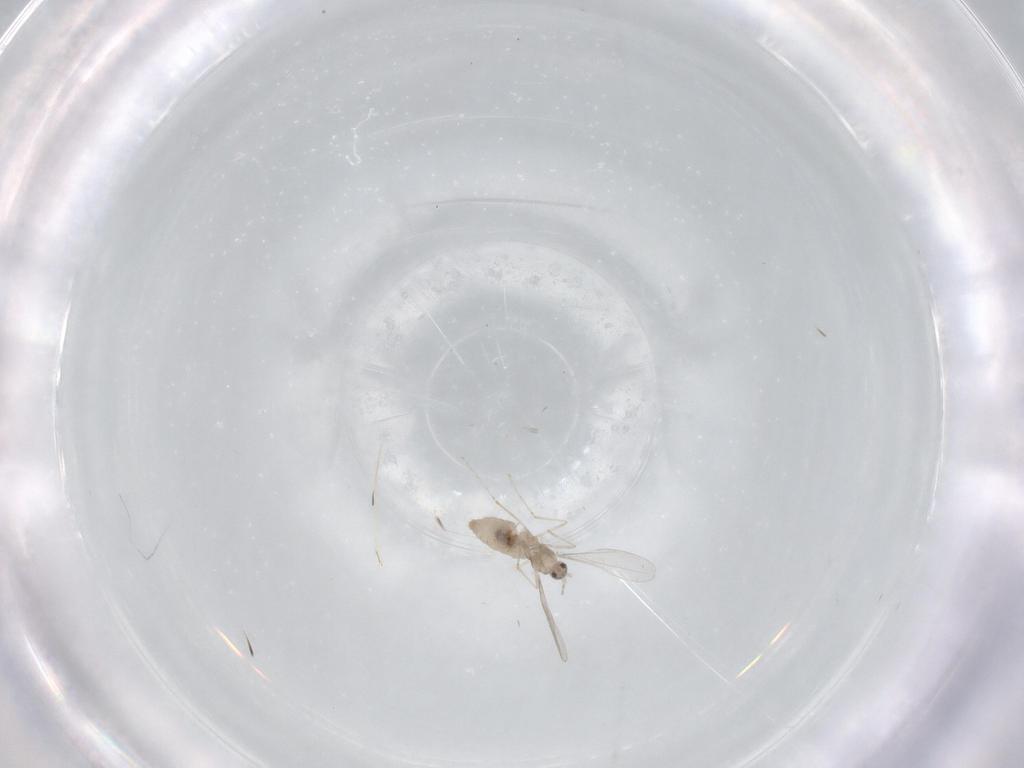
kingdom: Animalia
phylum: Arthropoda
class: Insecta
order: Diptera
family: Cecidomyiidae
